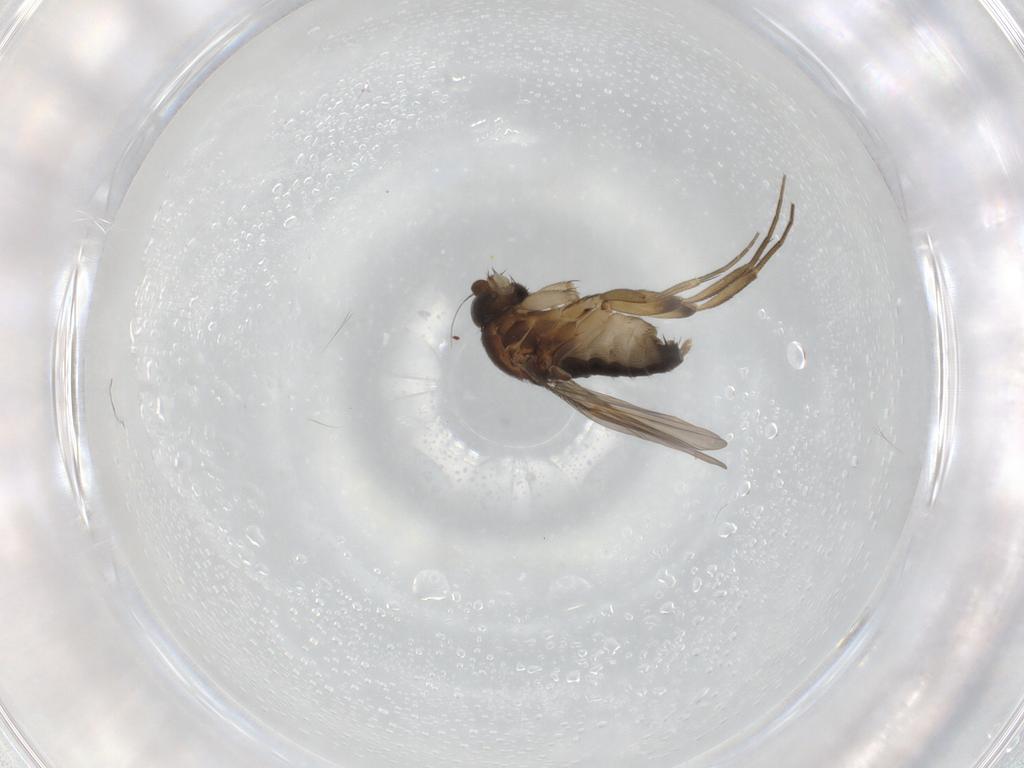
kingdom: Animalia
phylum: Arthropoda
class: Insecta
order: Diptera
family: Phoridae
